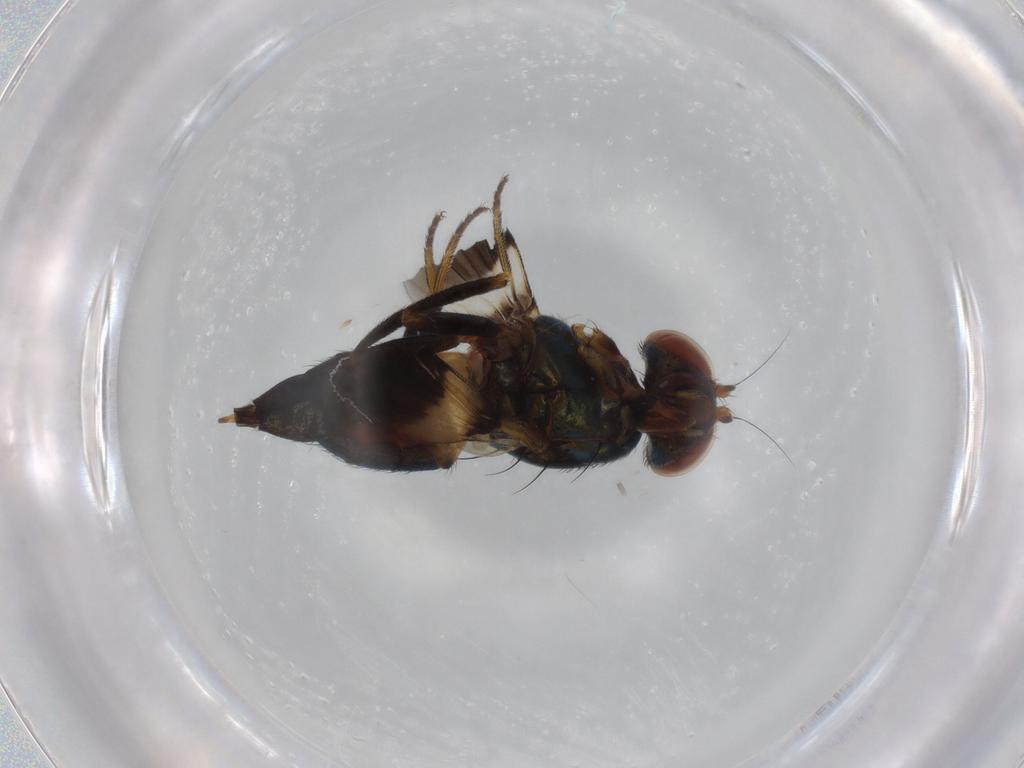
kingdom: Animalia
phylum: Arthropoda
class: Insecta
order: Diptera
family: Ulidiidae
